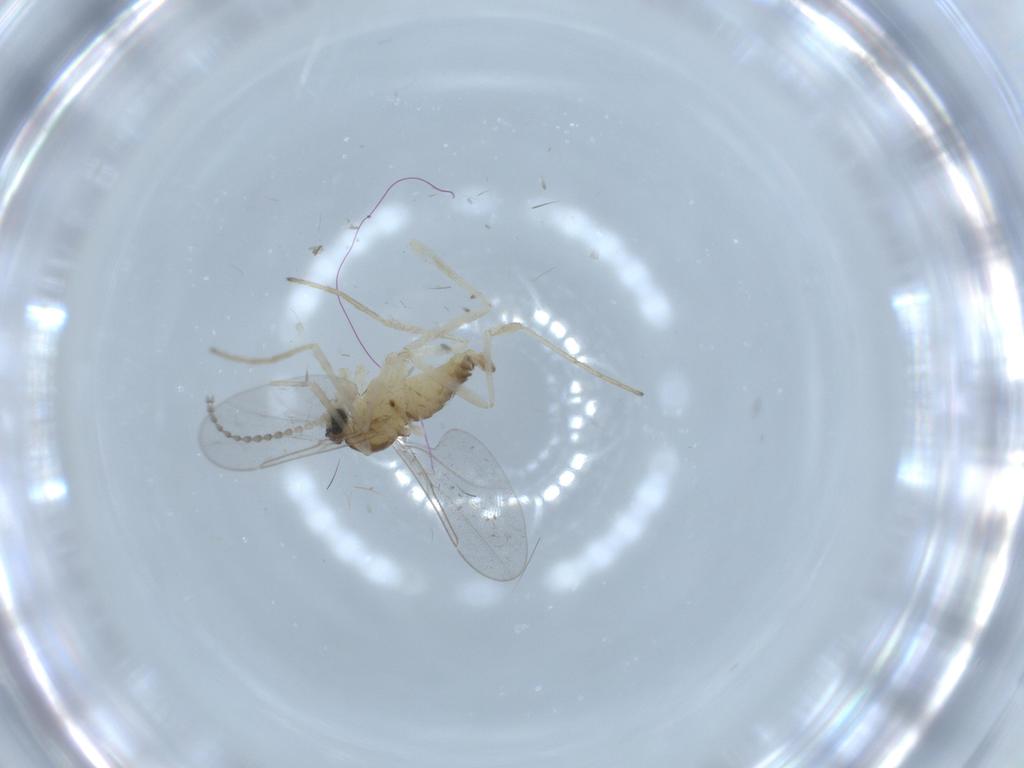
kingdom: Animalia
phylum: Arthropoda
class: Insecta
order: Diptera
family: Cecidomyiidae
